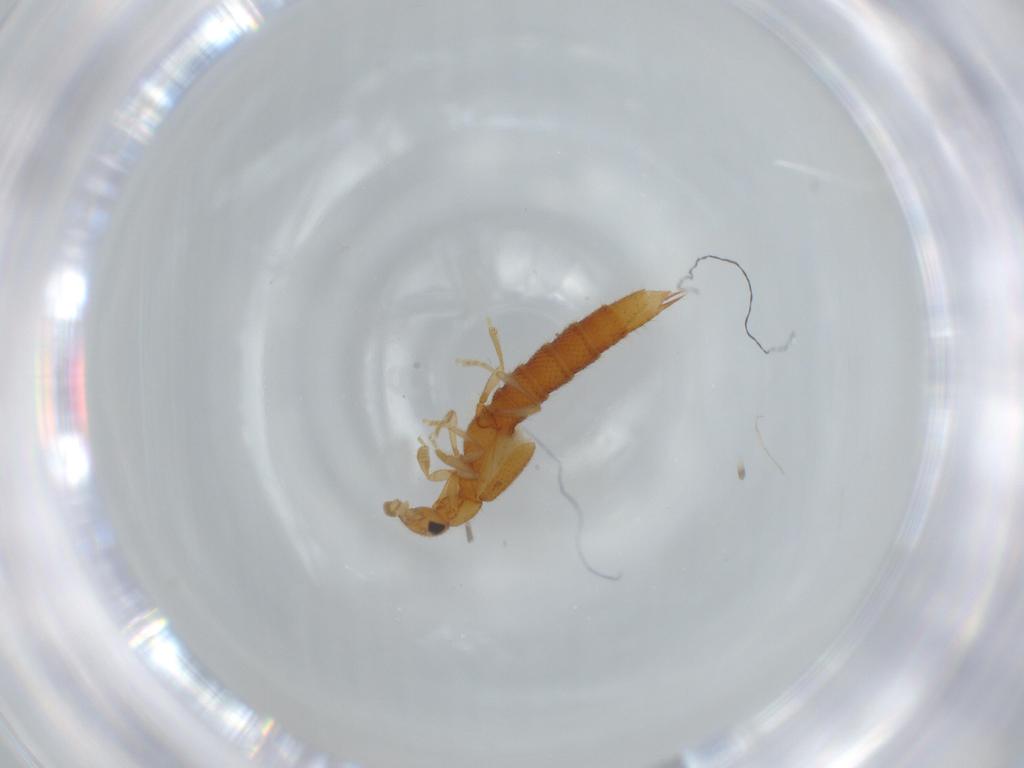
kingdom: Animalia
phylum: Arthropoda
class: Insecta
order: Coleoptera
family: Staphylinidae
